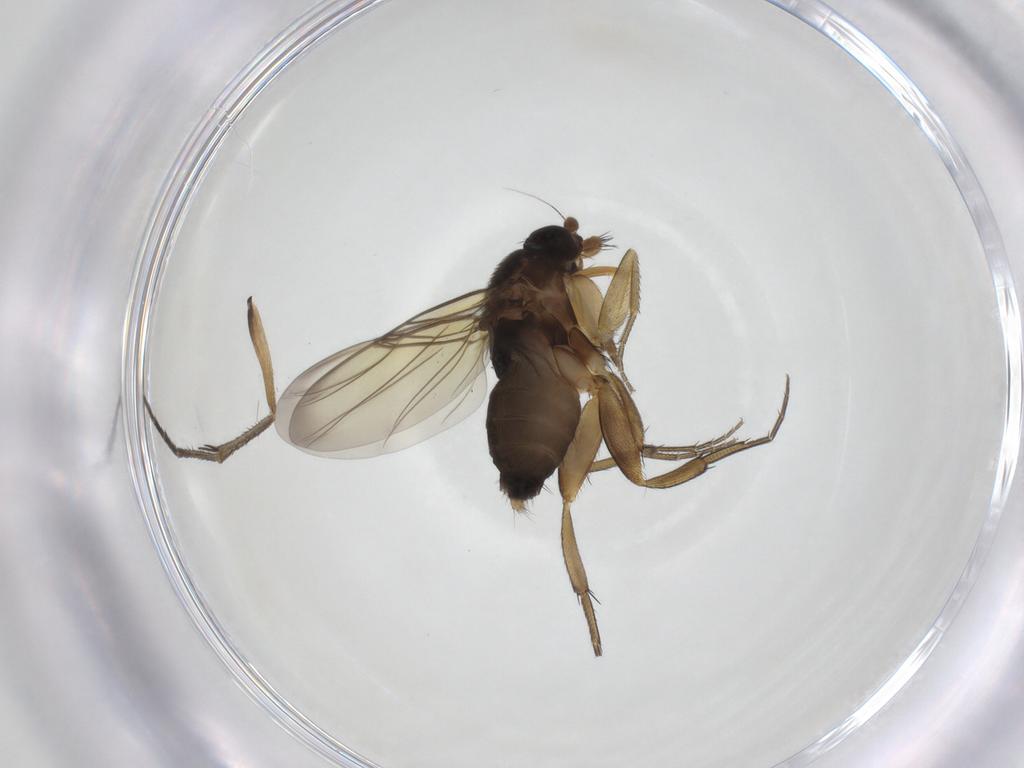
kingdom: Animalia
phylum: Arthropoda
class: Insecta
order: Diptera
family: Phoridae
